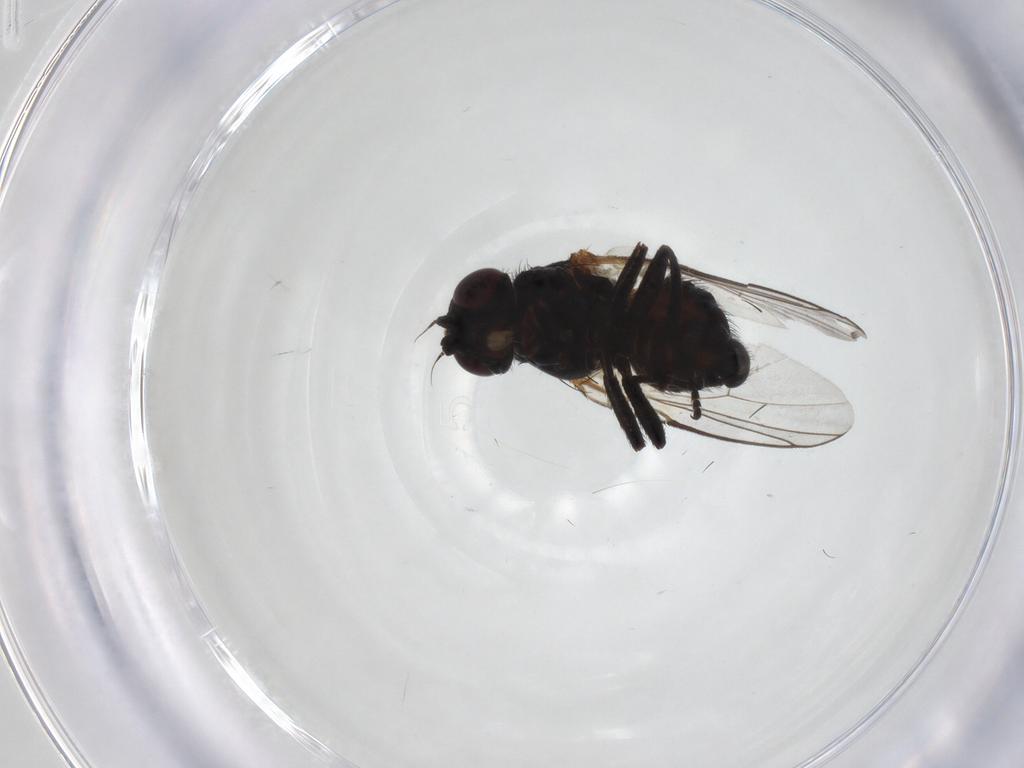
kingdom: Animalia
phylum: Arthropoda
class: Insecta
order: Diptera
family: Agromyzidae
